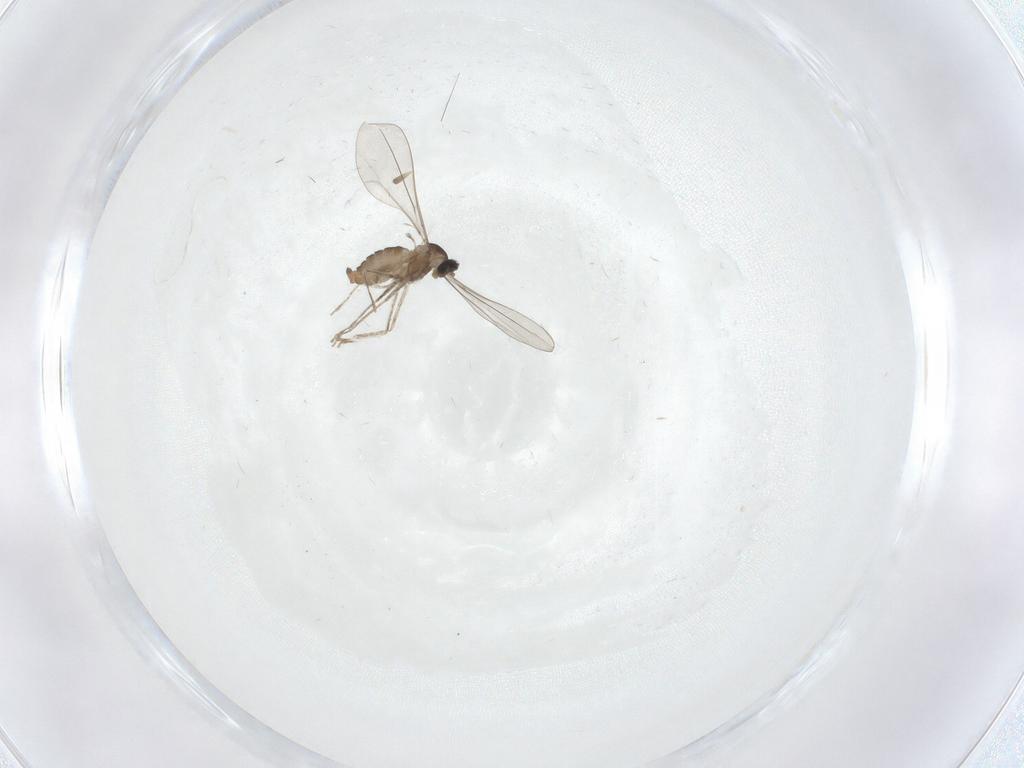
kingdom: Animalia
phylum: Arthropoda
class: Insecta
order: Diptera
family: Cecidomyiidae
